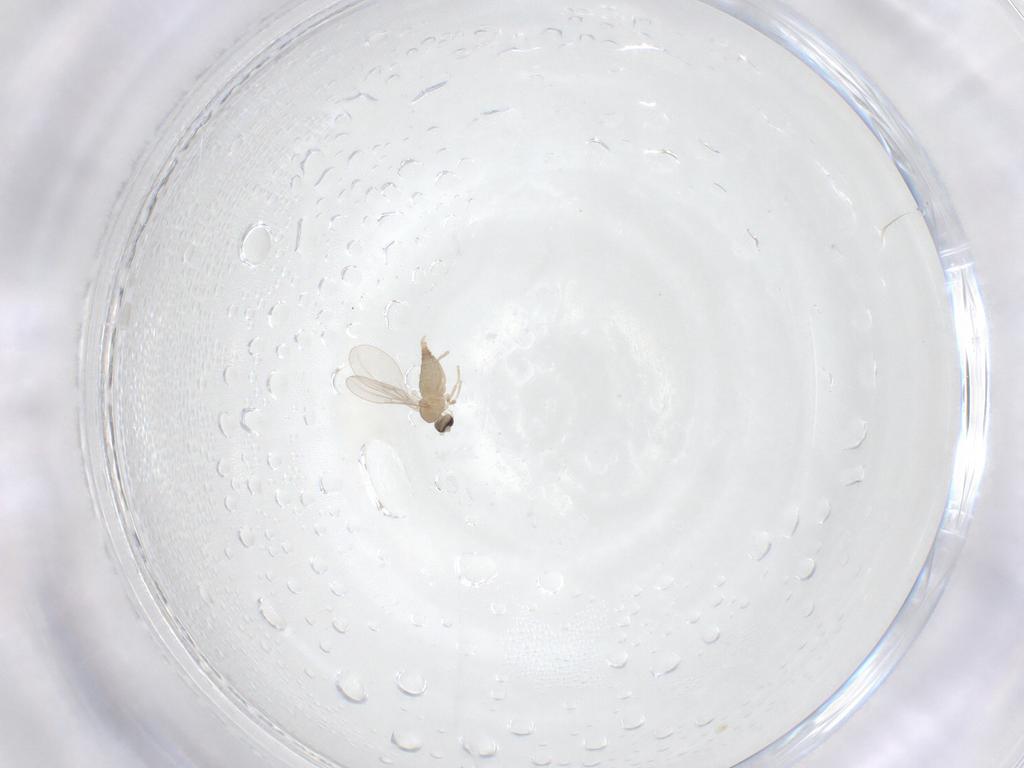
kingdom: Animalia
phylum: Arthropoda
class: Insecta
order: Diptera
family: Cecidomyiidae
